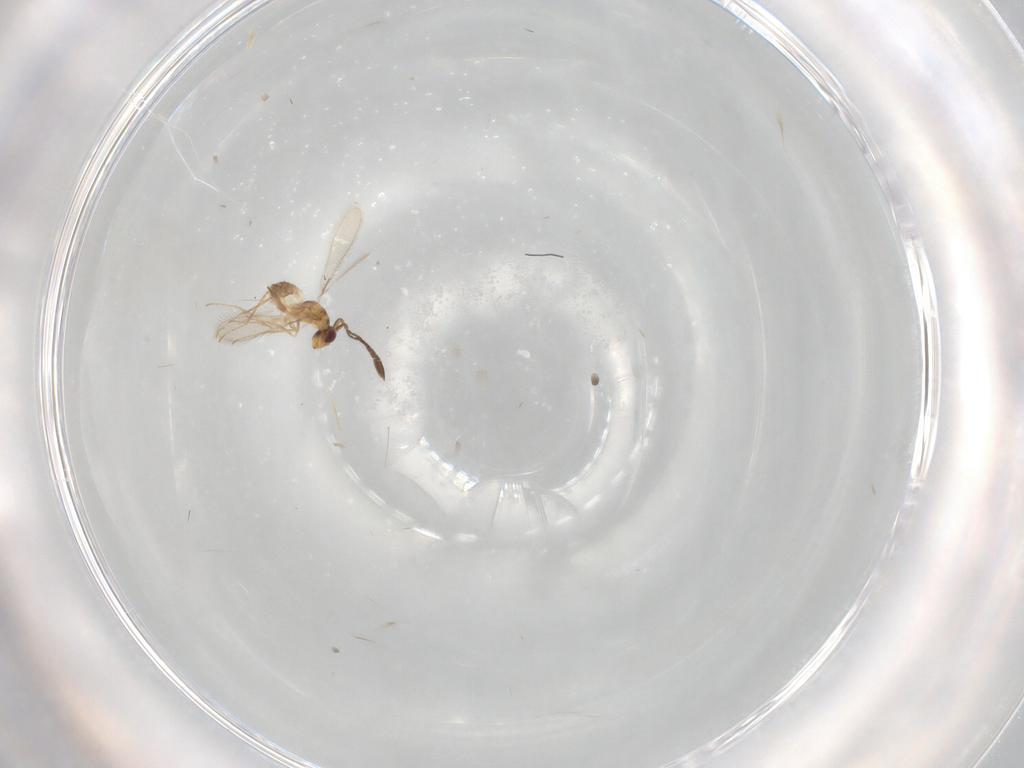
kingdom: Animalia
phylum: Arthropoda
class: Insecta
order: Hymenoptera
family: Mymaridae
